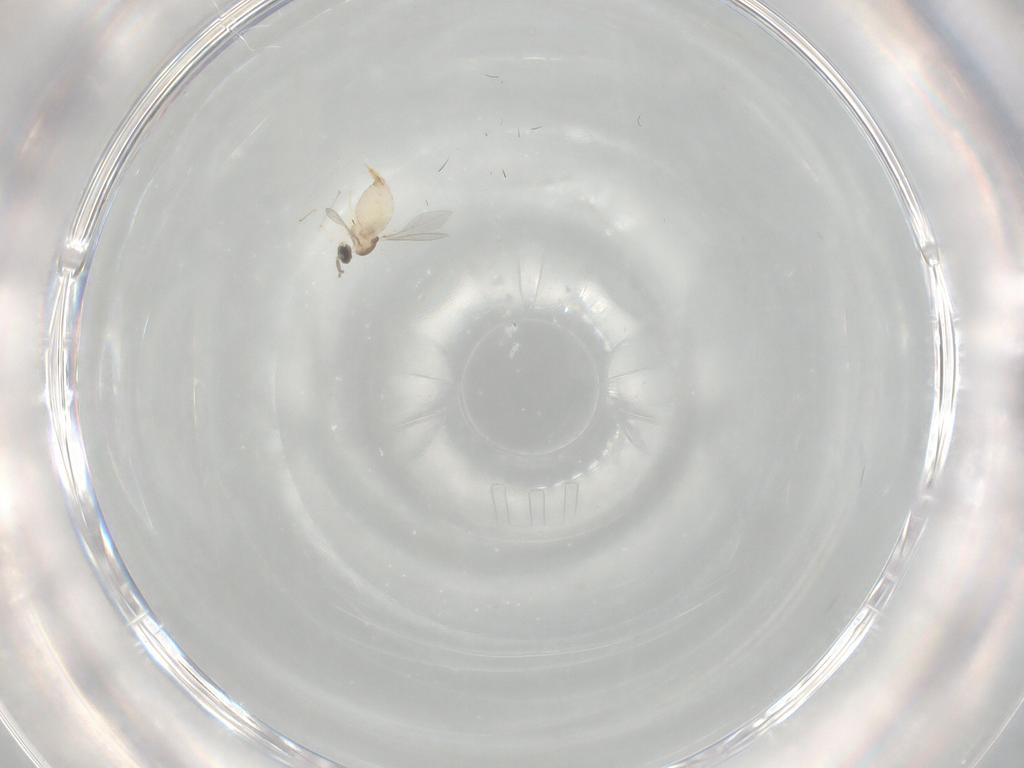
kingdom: Animalia
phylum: Arthropoda
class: Insecta
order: Diptera
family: Cecidomyiidae
